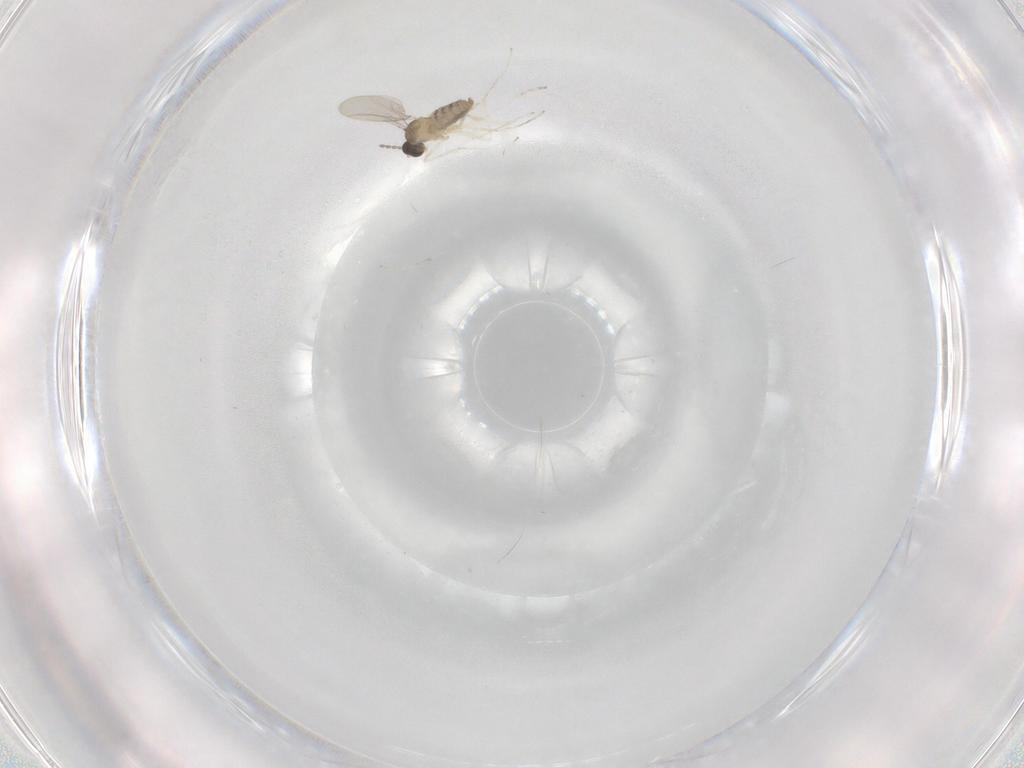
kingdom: Animalia
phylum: Arthropoda
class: Insecta
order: Diptera
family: Cecidomyiidae
